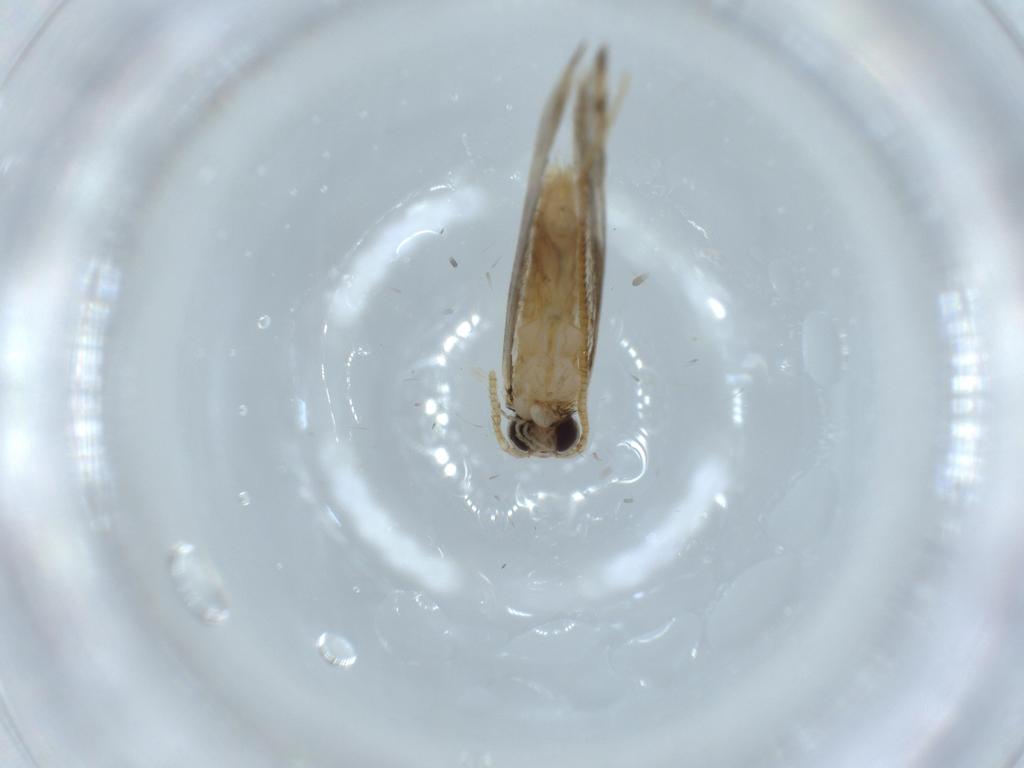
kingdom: Animalia
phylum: Arthropoda
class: Insecta
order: Lepidoptera
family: Tineidae
